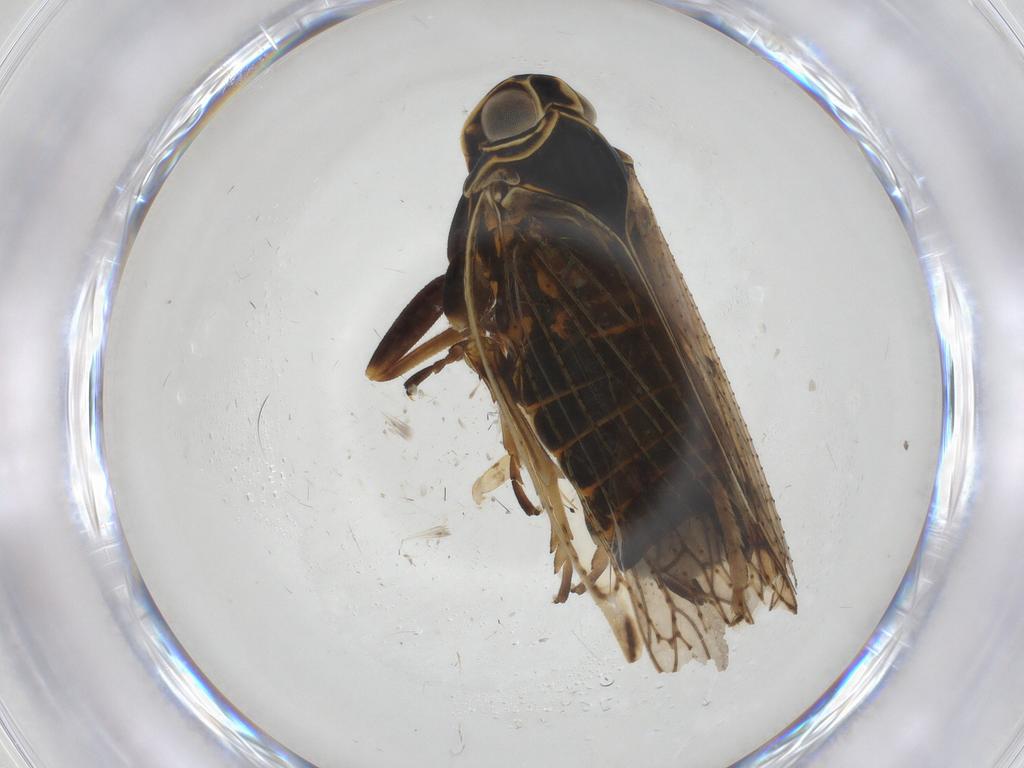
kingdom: Animalia
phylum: Arthropoda
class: Insecta
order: Hemiptera
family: Cixiidae
